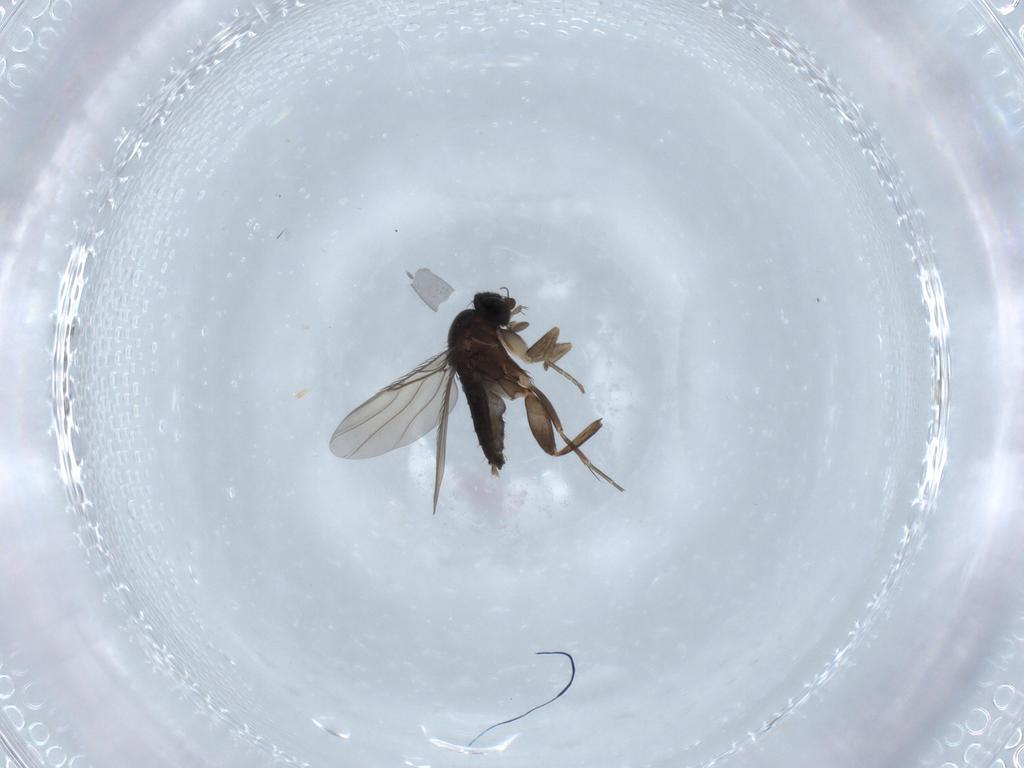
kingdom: Animalia
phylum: Arthropoda
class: Insecta
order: Diptera
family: Phoridae
